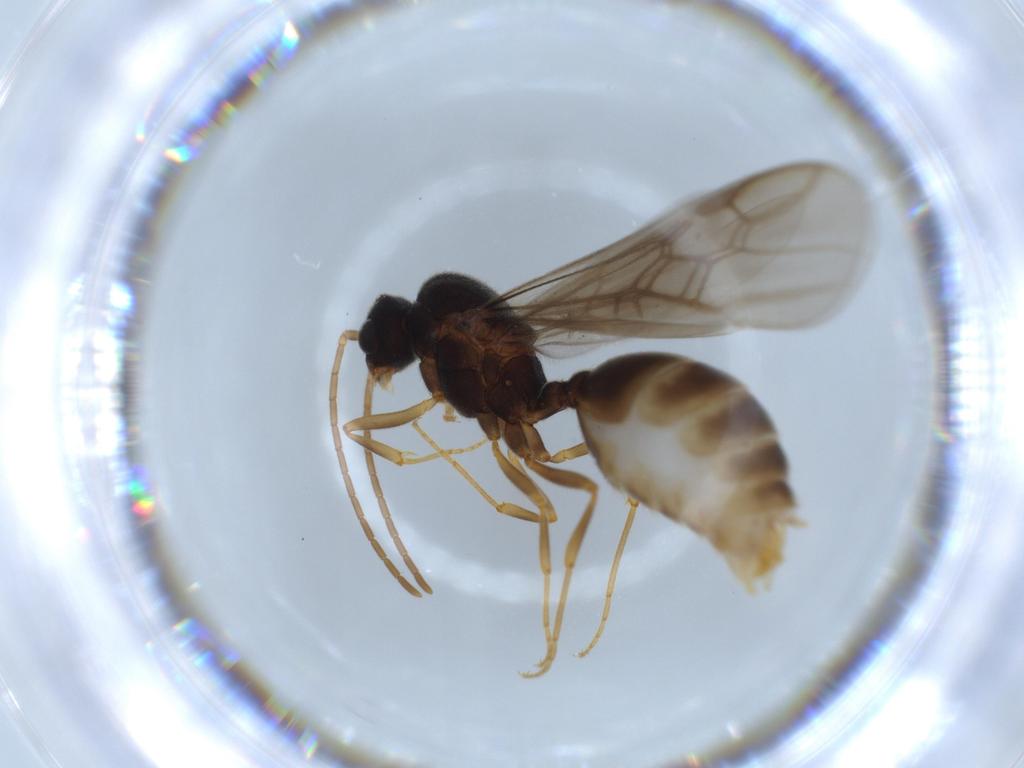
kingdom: Animalia
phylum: Arthropoda
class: Insecta
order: Hymenoptera
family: Formicidae
